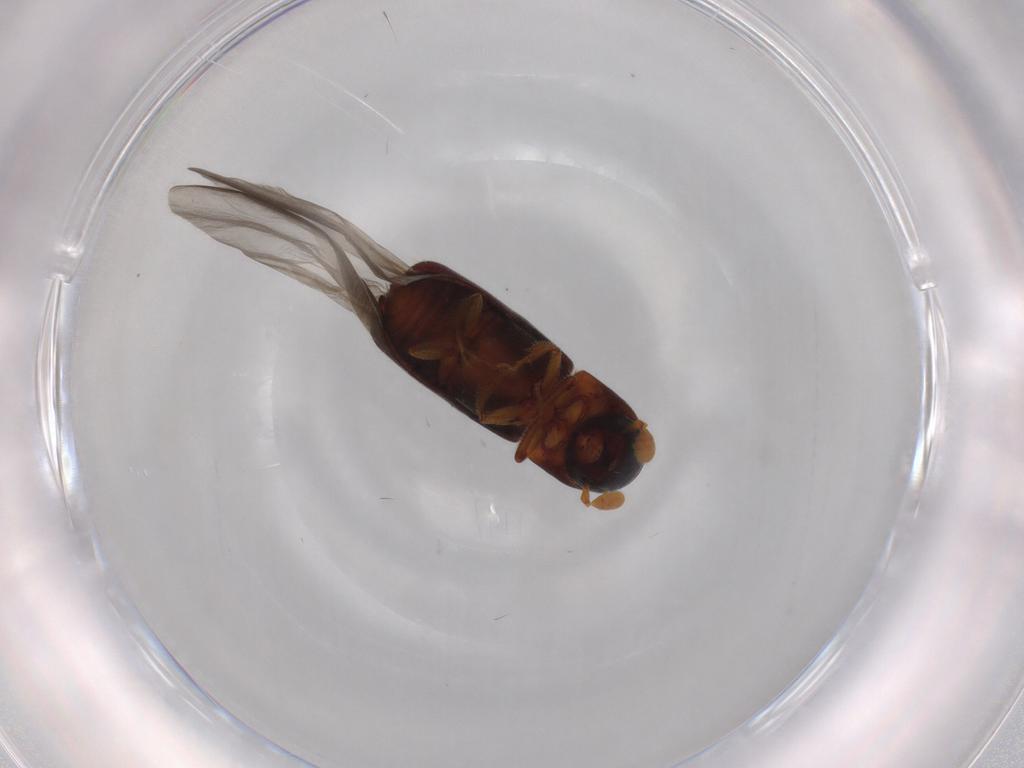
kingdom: Animalia
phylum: Arthropoda
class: Insecta
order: Coleoptera
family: Curculionidae
